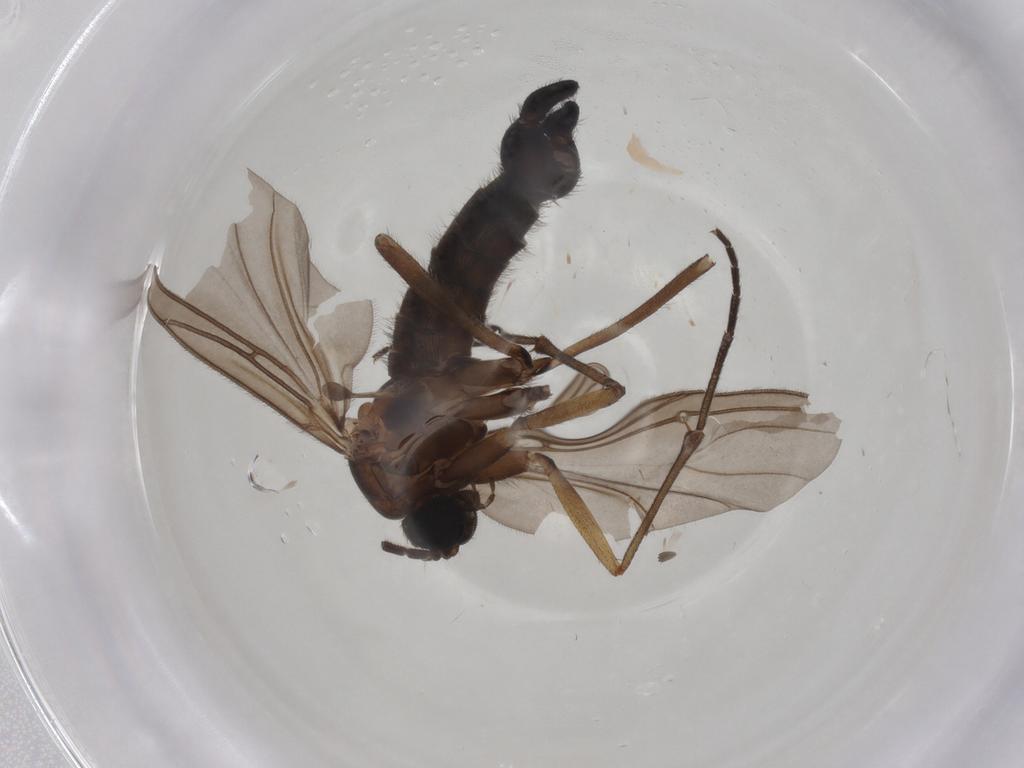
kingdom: Animalia
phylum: Arthropoda
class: Insecta
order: Diptera
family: Sciaridae
